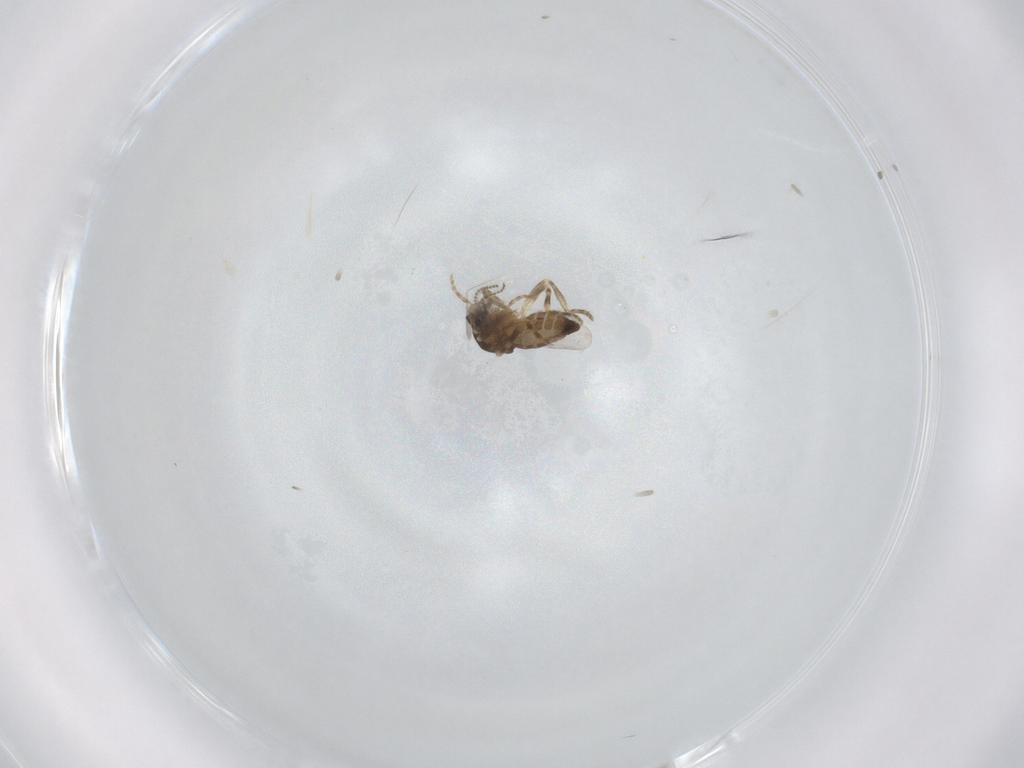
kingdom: Animalia
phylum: Arthropoda
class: Insecta
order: Diptera
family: Ceratopogonidae
